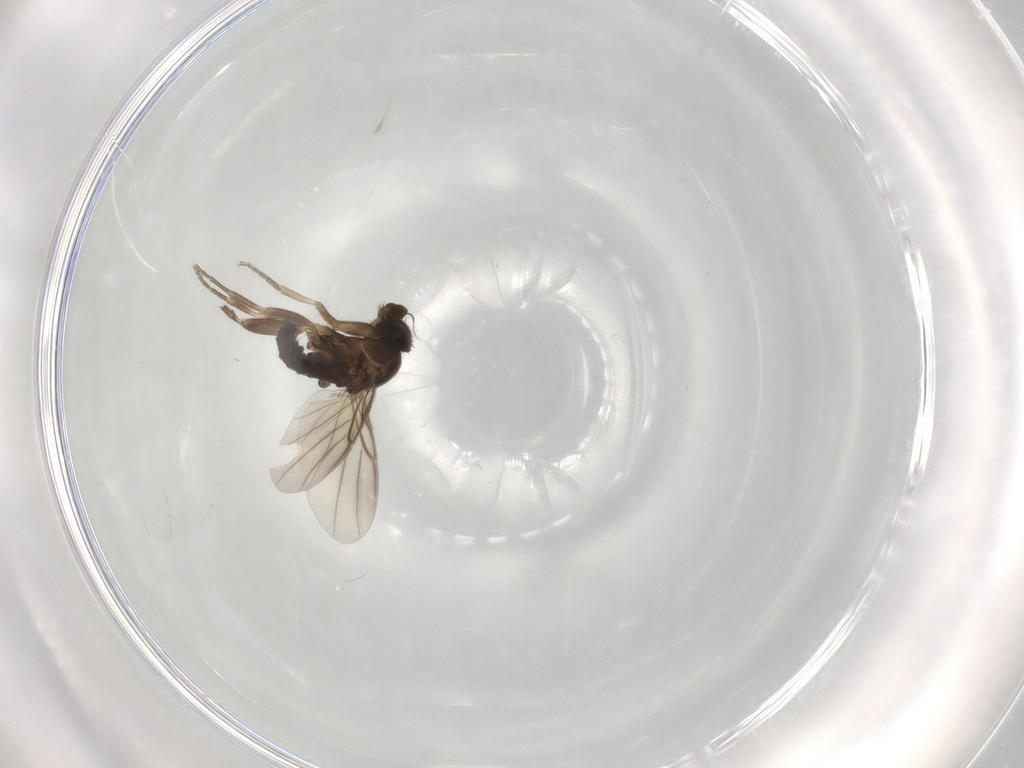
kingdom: Animalia
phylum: Arthropoda
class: Insecta
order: Diptera
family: Cecidomyiidae
